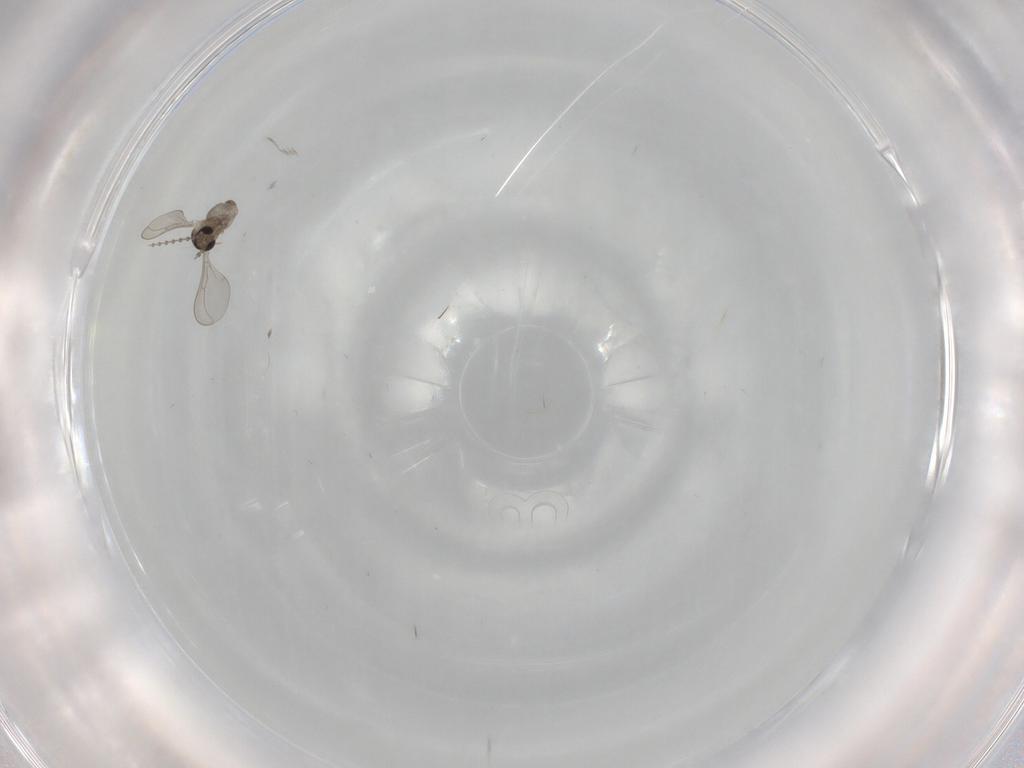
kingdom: Animalia
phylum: Arthropoda
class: Insecta
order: Diptera
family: Cecidomyiidae
